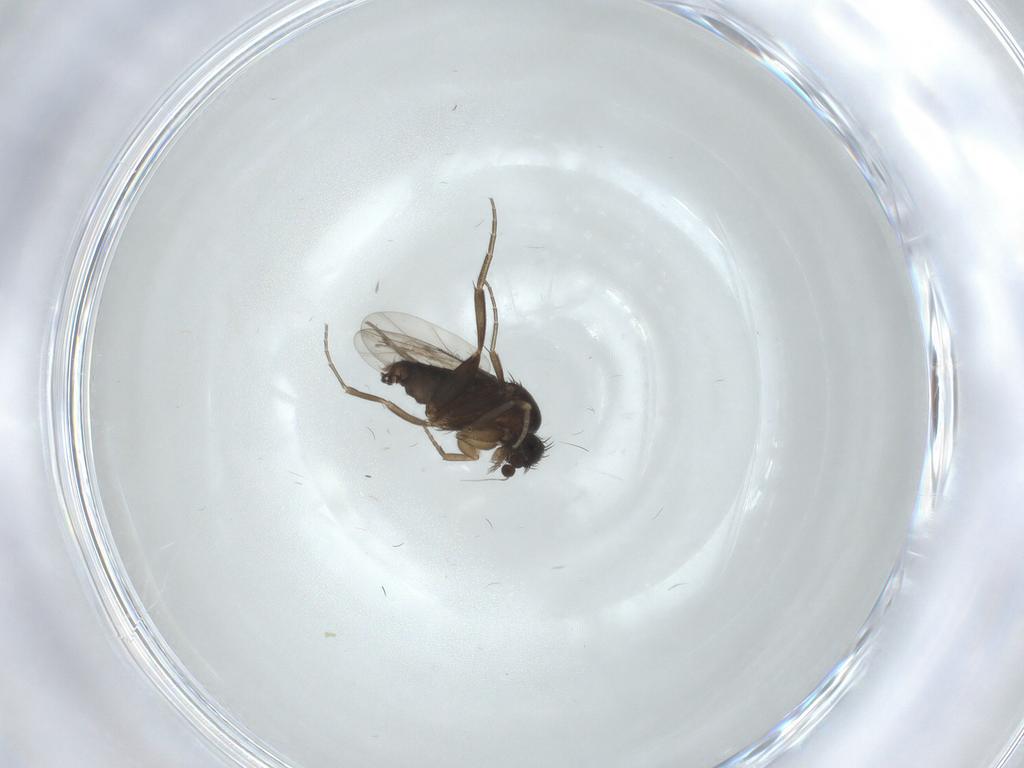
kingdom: Animalia
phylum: Arthropoda
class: Insecta
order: Diptera
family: Phoridae
